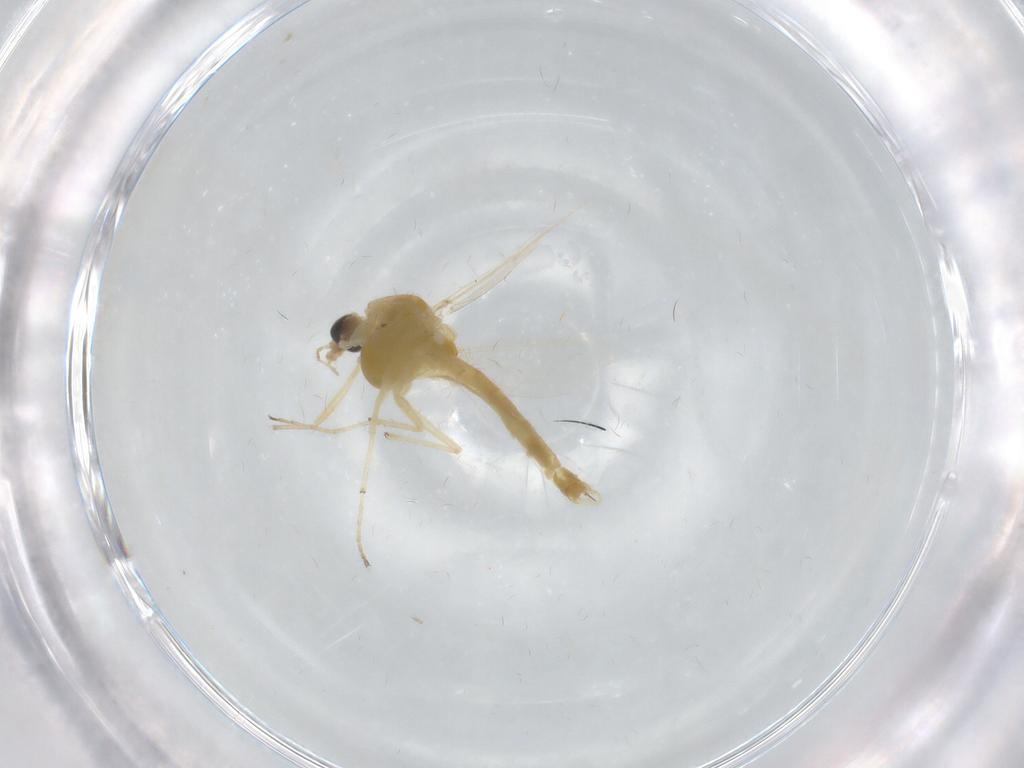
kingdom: Animalia
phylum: Arthropoda
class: Insecta
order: Diptera
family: Chironomidae
